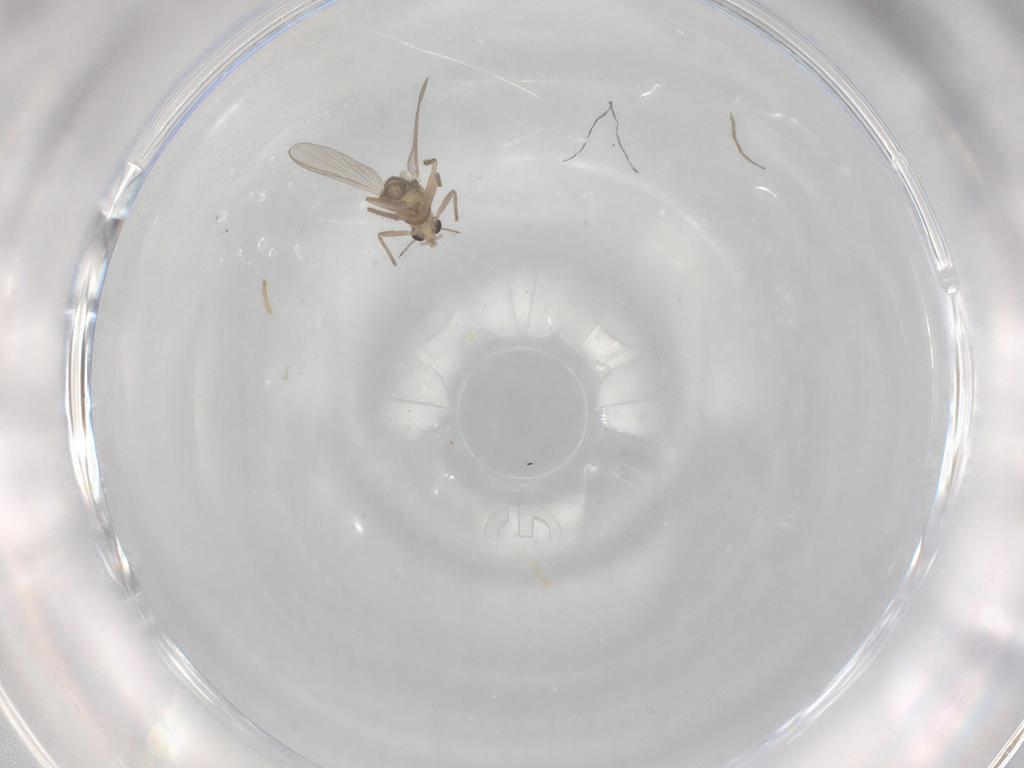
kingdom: Animalia
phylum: Arthropoda
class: Insecta
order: Diptera
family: Chironomidae
